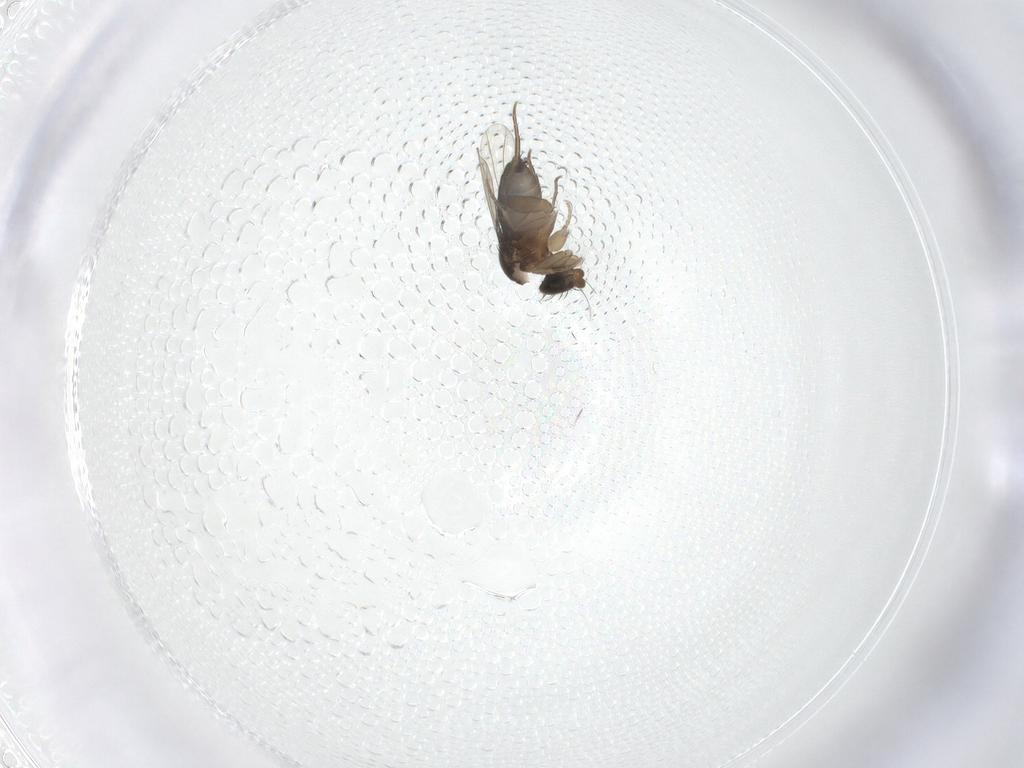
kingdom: Animalia
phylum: Arthropoda
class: Insecta
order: Diptera
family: Phoridae
